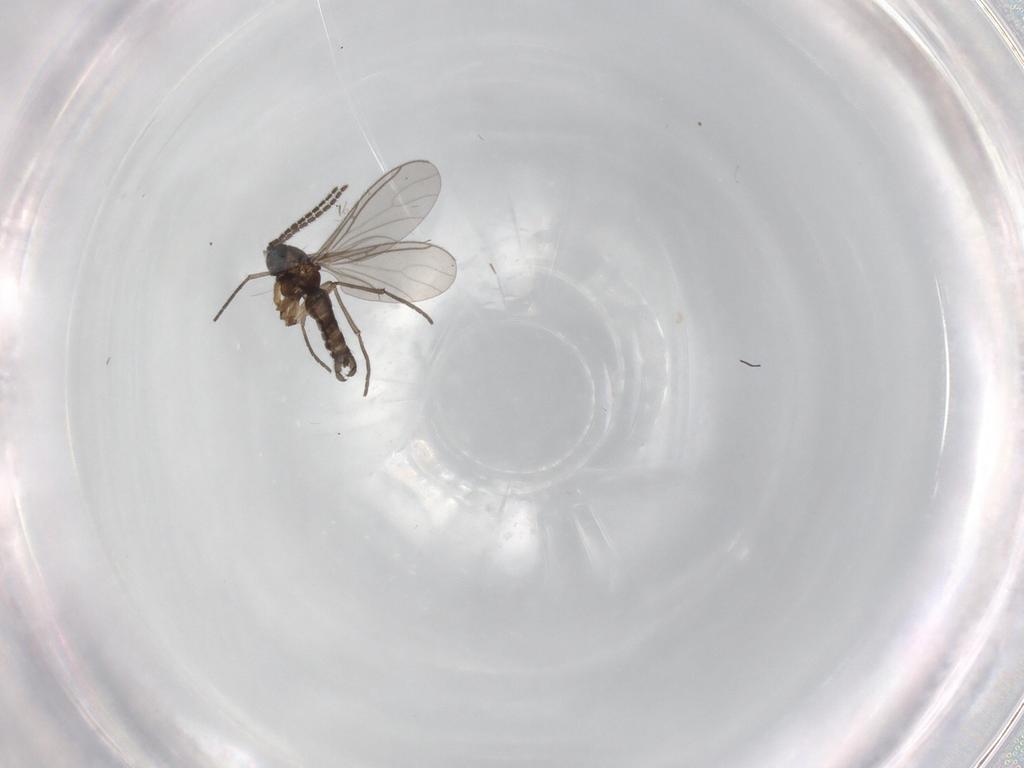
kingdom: Animalia
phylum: Arthropoda
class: Insecta
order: Diptera
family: Sciaridae
